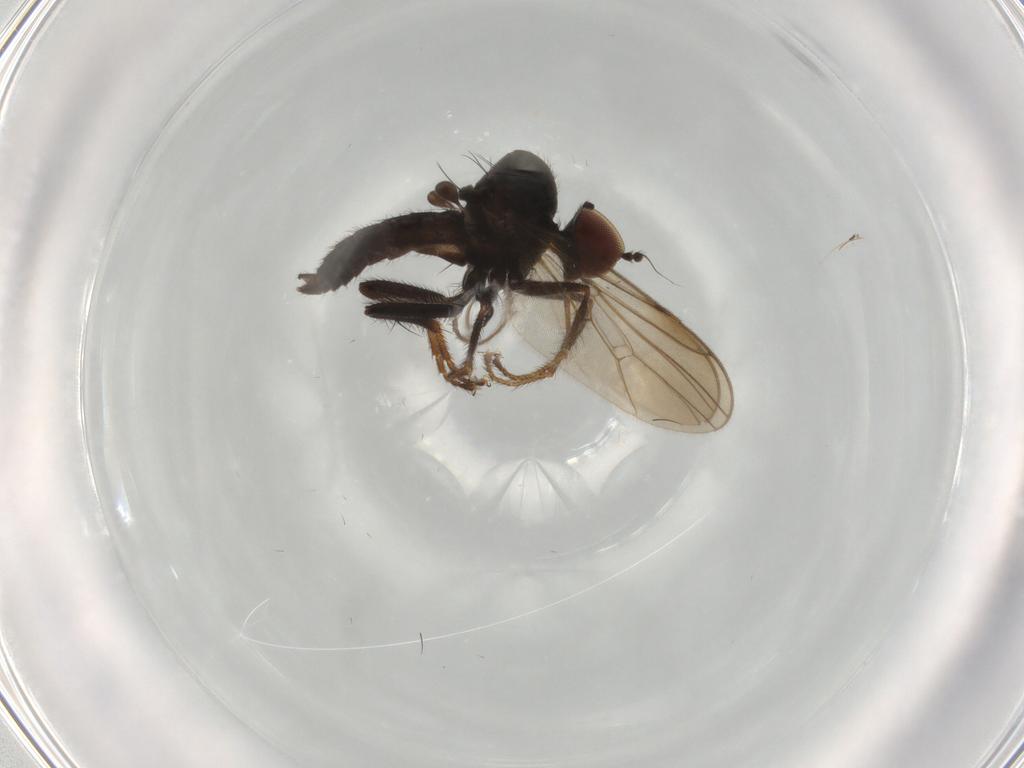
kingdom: Animalia
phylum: Arthropoda
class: Insecta
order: Diptera
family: Hybotidae
